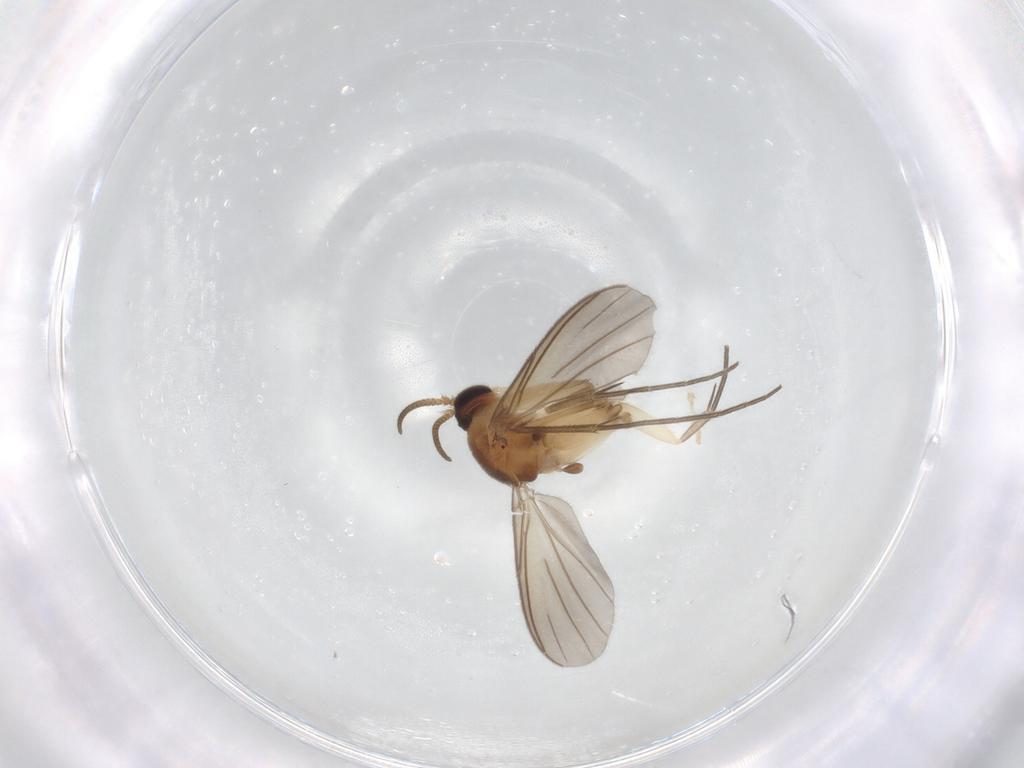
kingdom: Animalia
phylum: Arthropoda
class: Insecta
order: Diptera
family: Mycetophilidae
